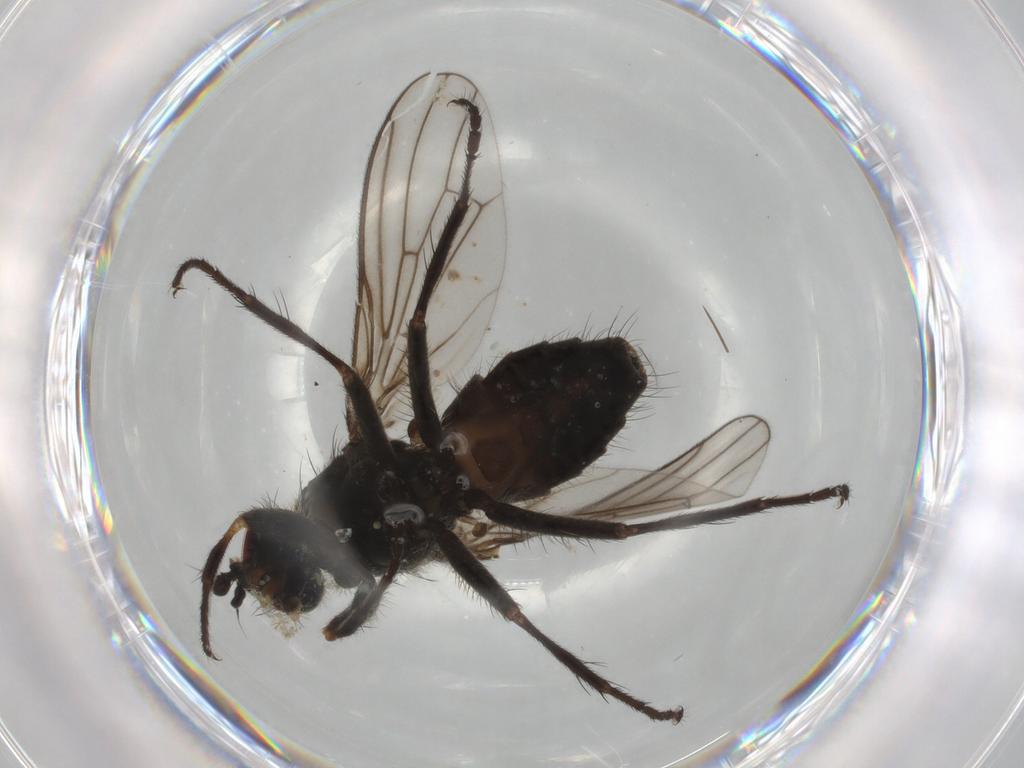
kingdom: Animalia
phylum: Arthropoda
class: Insecta
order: Diptera
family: Scathophagidae
